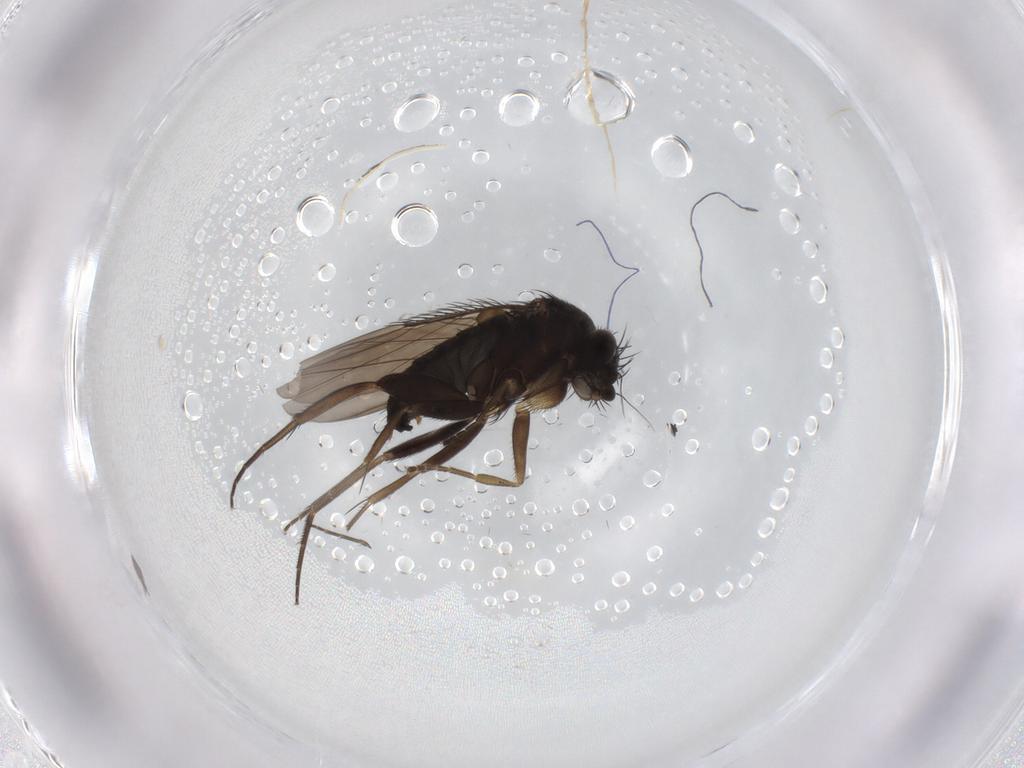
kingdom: Animalia
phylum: Arthropoda
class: Insecta
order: Diptera
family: Phoridae
